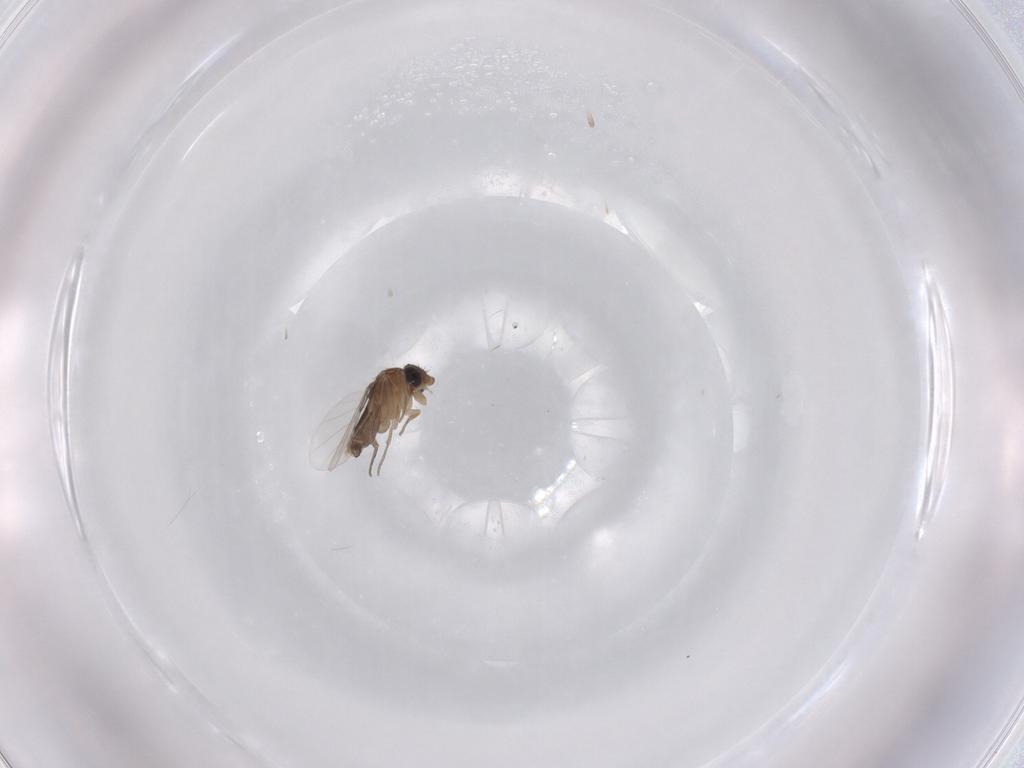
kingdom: Animalia
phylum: Arthropoda
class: Insecta
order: Diptera
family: Phoridae
